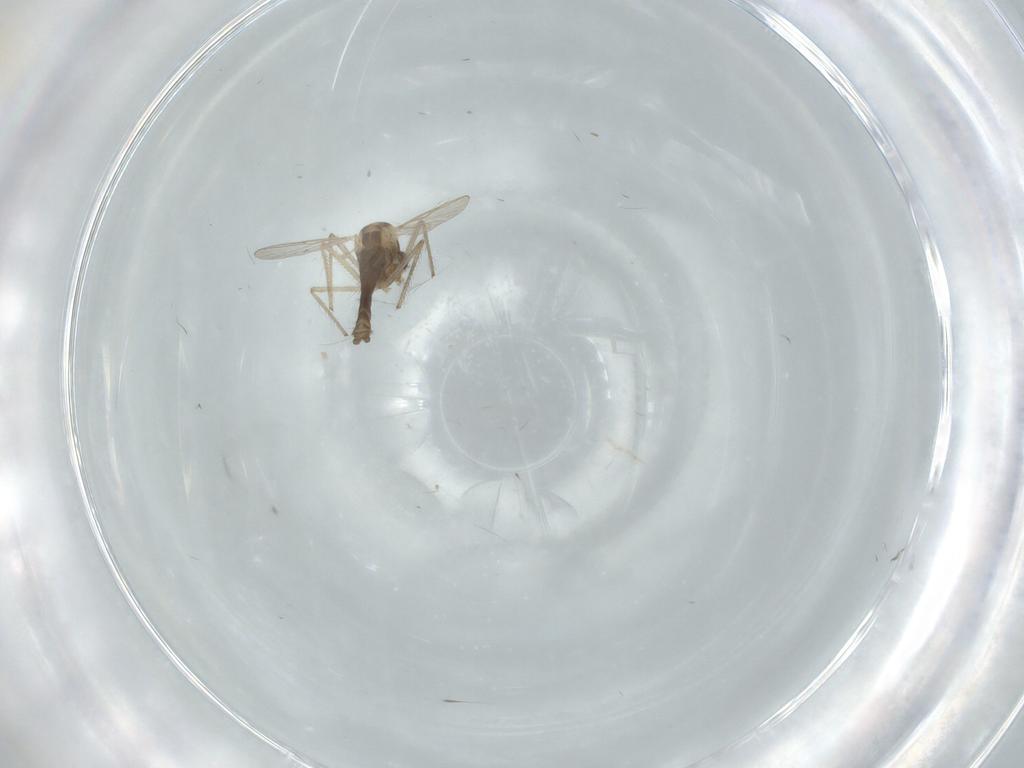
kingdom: Animalia
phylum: Arthropoda
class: Insecta
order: Diptera
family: Chironomidae
